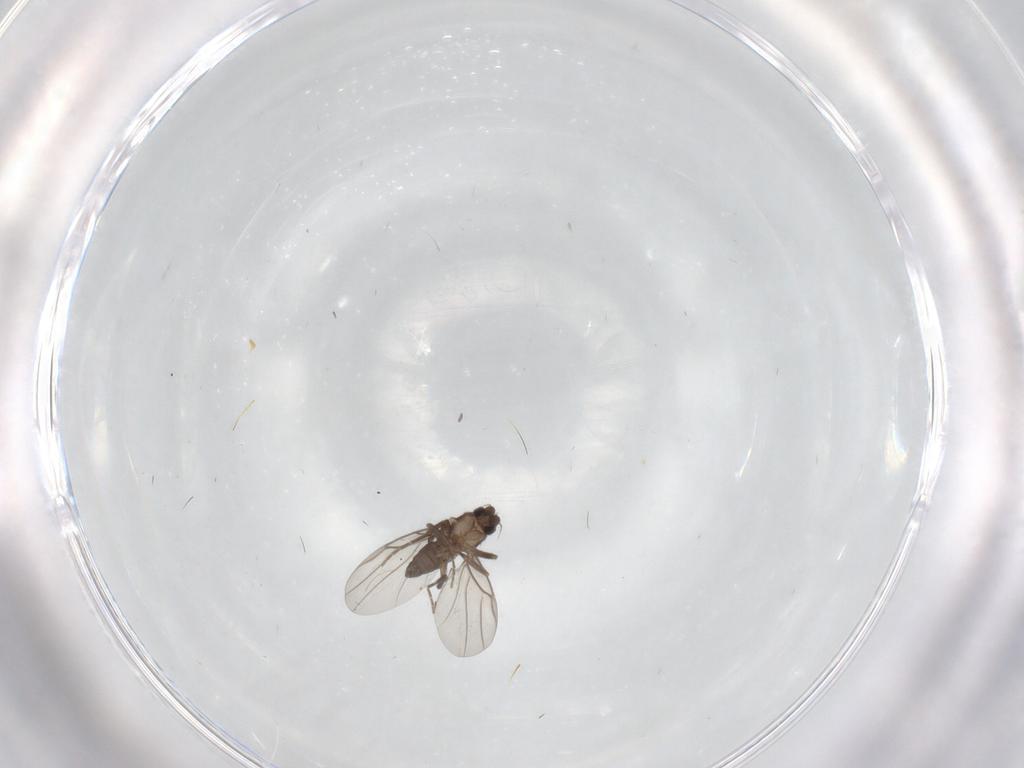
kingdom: Animalia
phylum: Arthropoda
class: Insecta
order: Diptera
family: Phoridae
